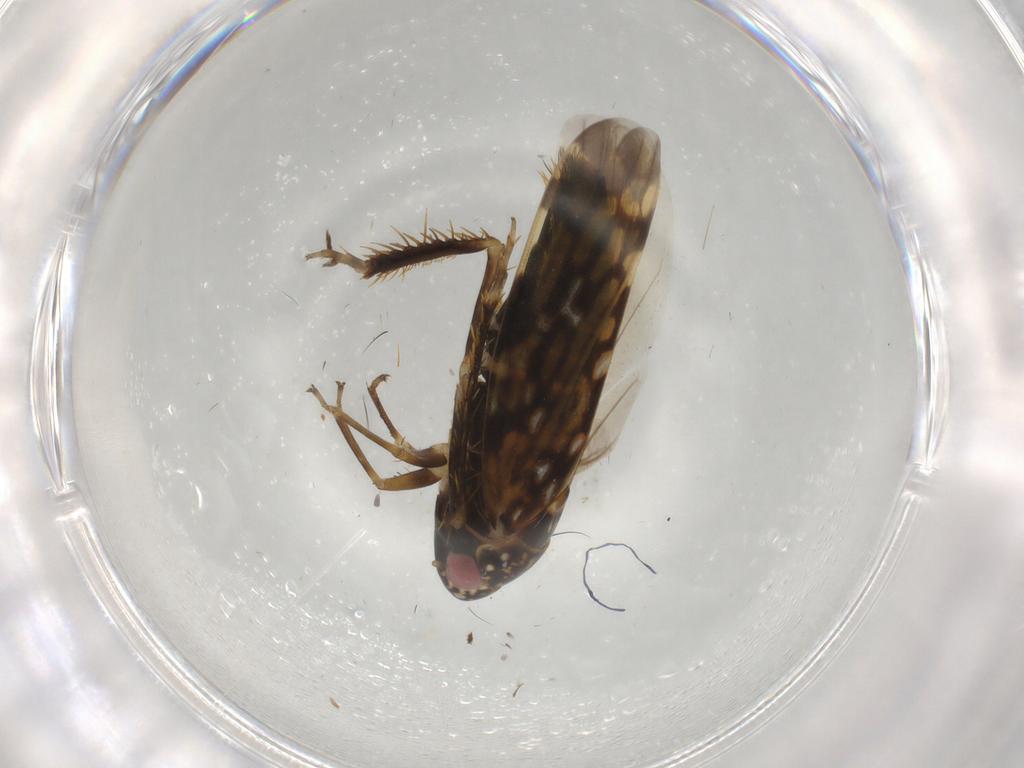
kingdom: Animalia
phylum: Arthropoda
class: Insecta
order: Hemiptera
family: Cicadellidae
